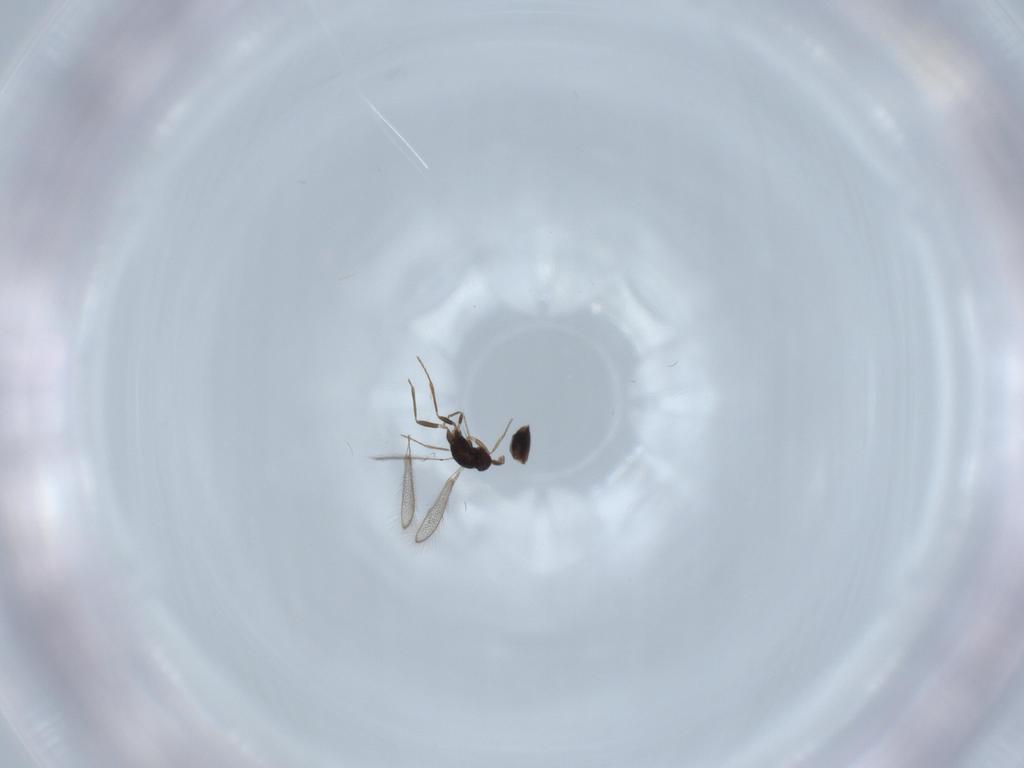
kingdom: Animalia
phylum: Arthropoda
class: Insecta
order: Hymenoptera
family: Mymaridae
